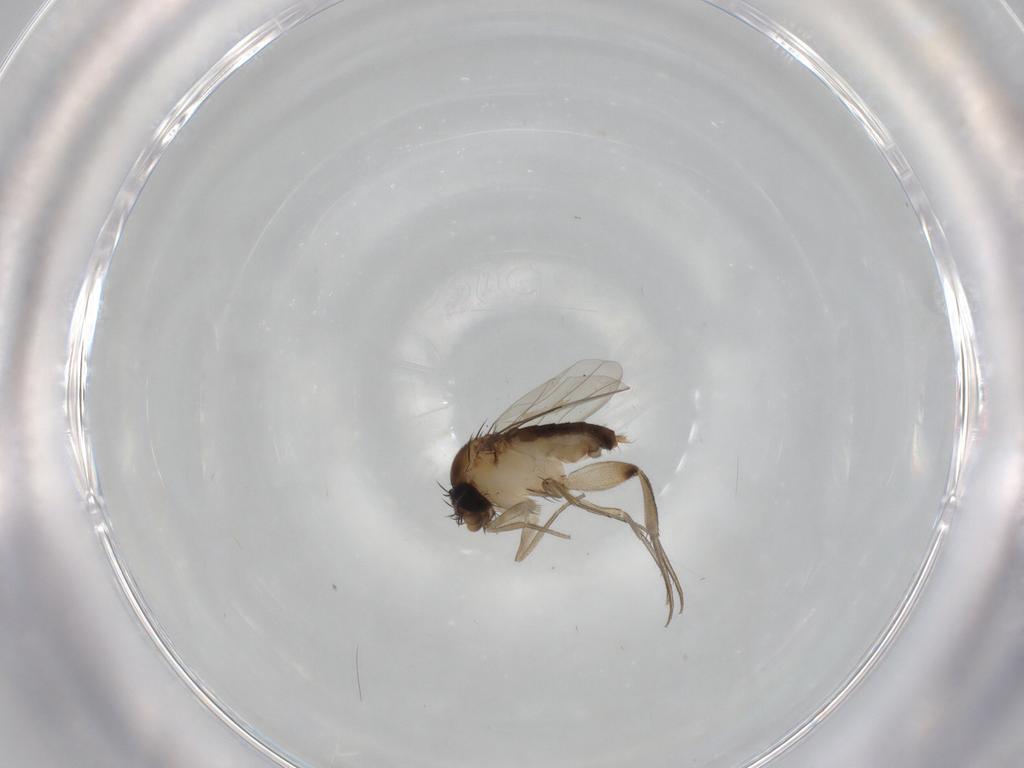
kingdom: Animalia
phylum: Arthropoda
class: Insecta
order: Diptera
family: Phoridae
